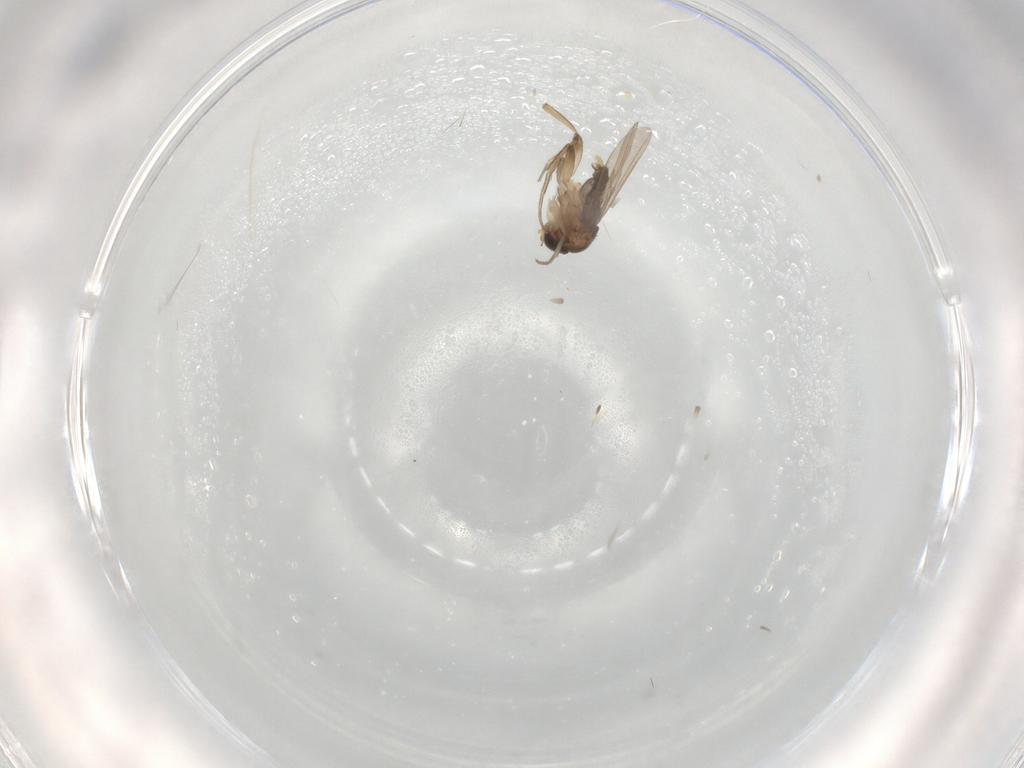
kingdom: Animalia
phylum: Arthropoda
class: Insecta
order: Diptera
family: Phoridae
